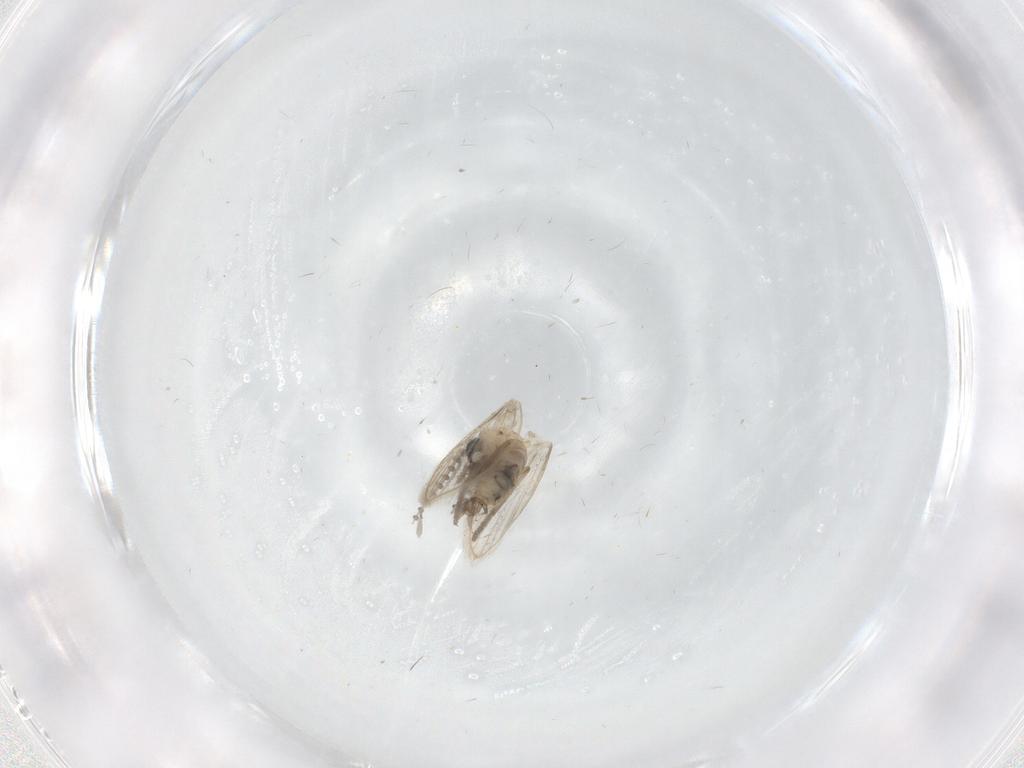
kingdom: Animalia
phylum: Arthropoda
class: Insecta
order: Diptera
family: Psychodidae
